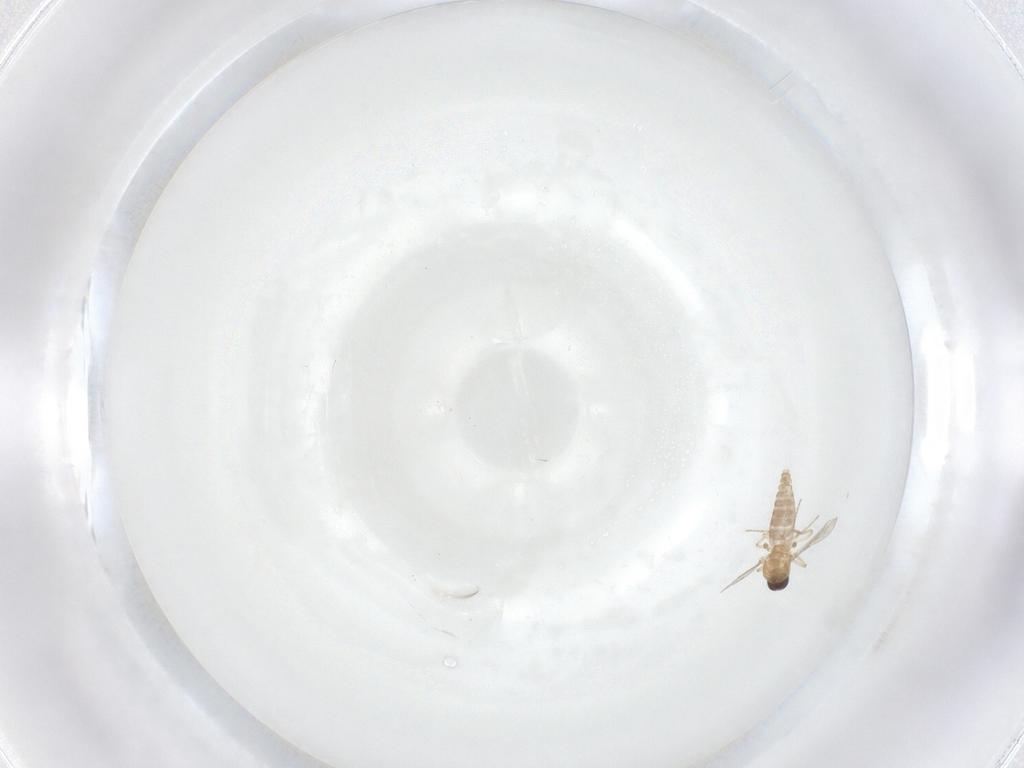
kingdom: Animalia
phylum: Arthropoda
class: Insecta
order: Diptera
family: Ceratopogonidae
